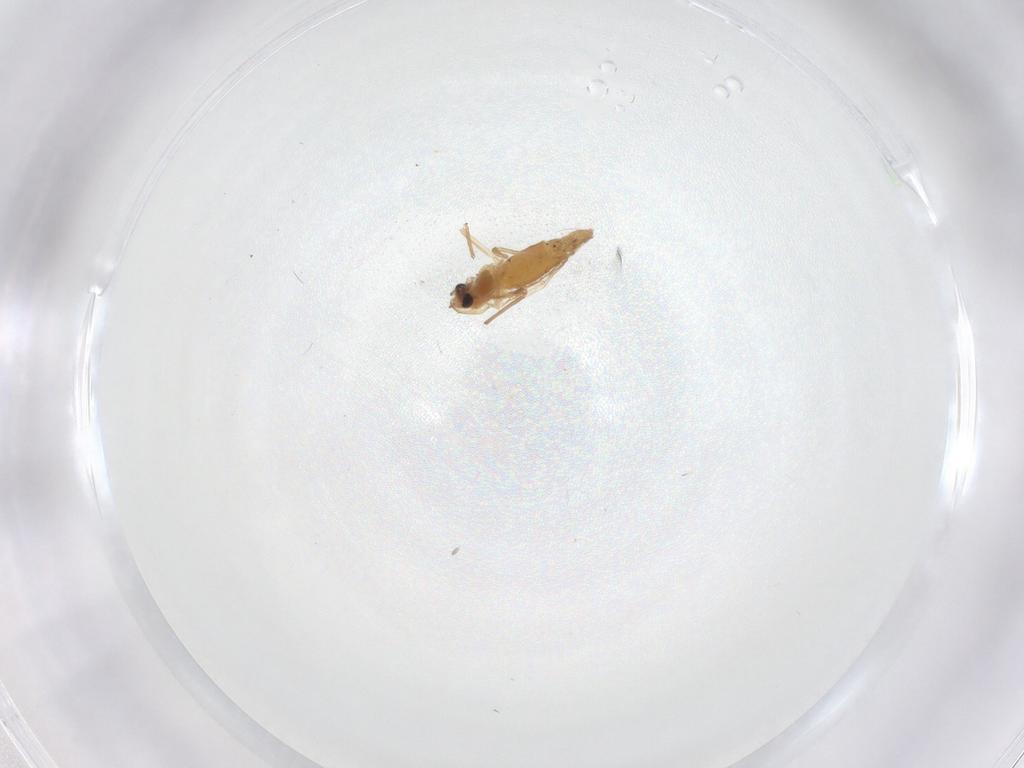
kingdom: Animalia
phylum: Arthropoda
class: Insecta
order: Diptera
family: Chironomidae
